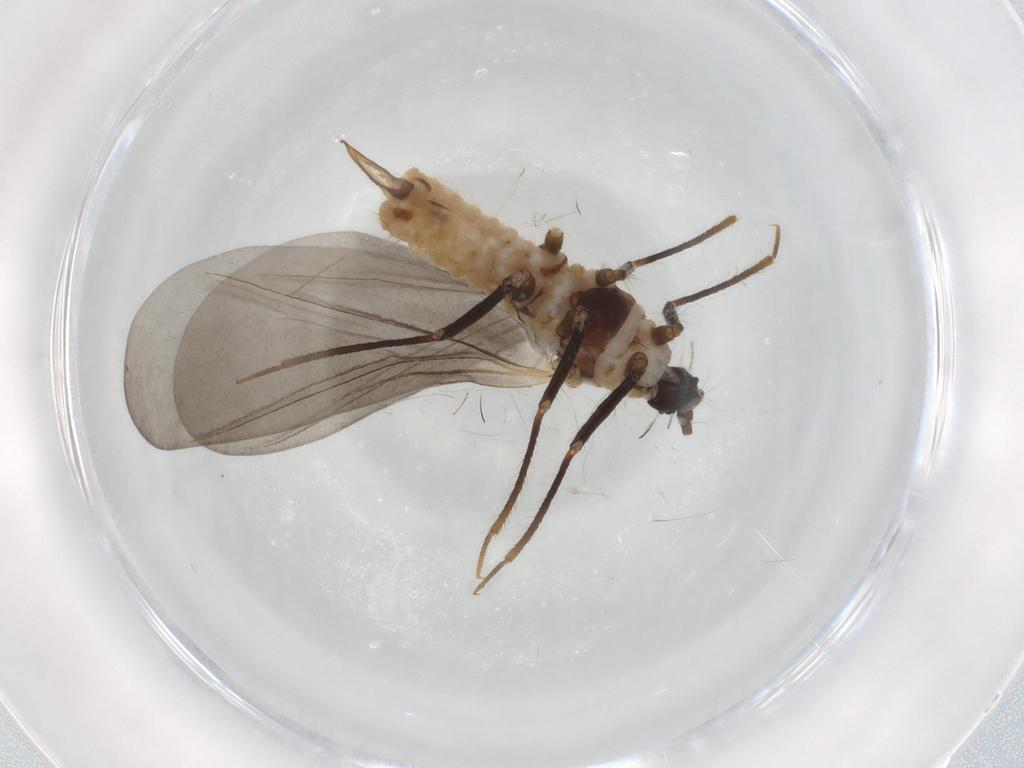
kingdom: Animalia
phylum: Arthropoda
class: Insecta
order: Hemiptera
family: Putoidae
